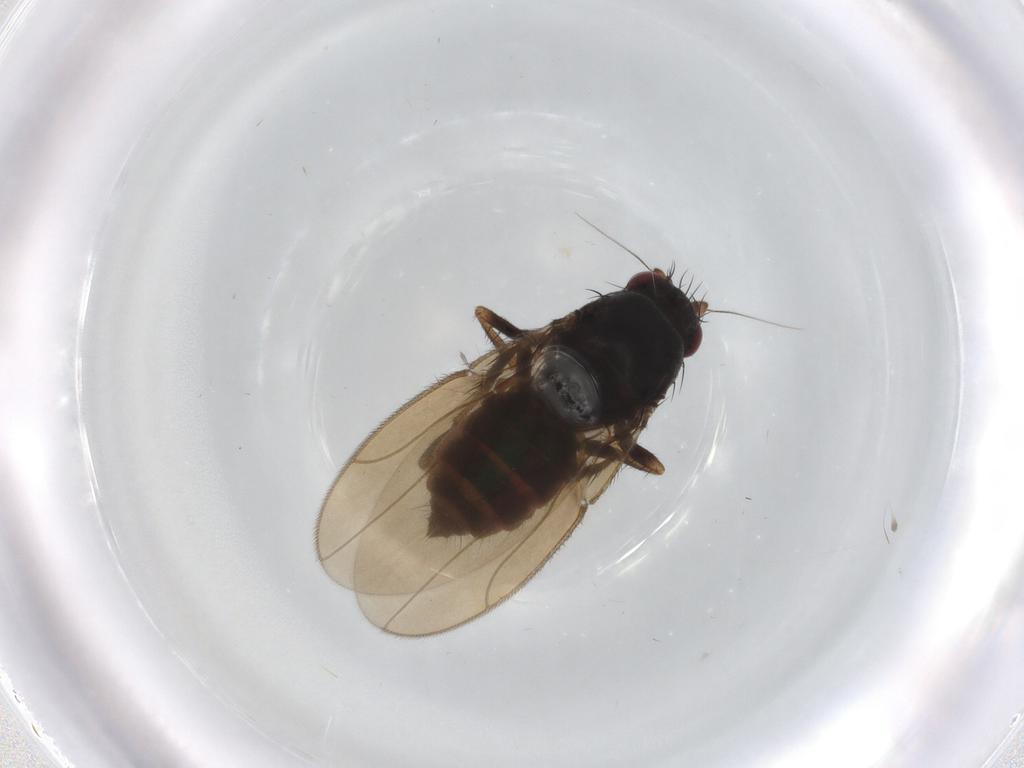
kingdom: Animalia
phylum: Arthropoda
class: Insecta
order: Diptera
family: Sphaeroceridae
